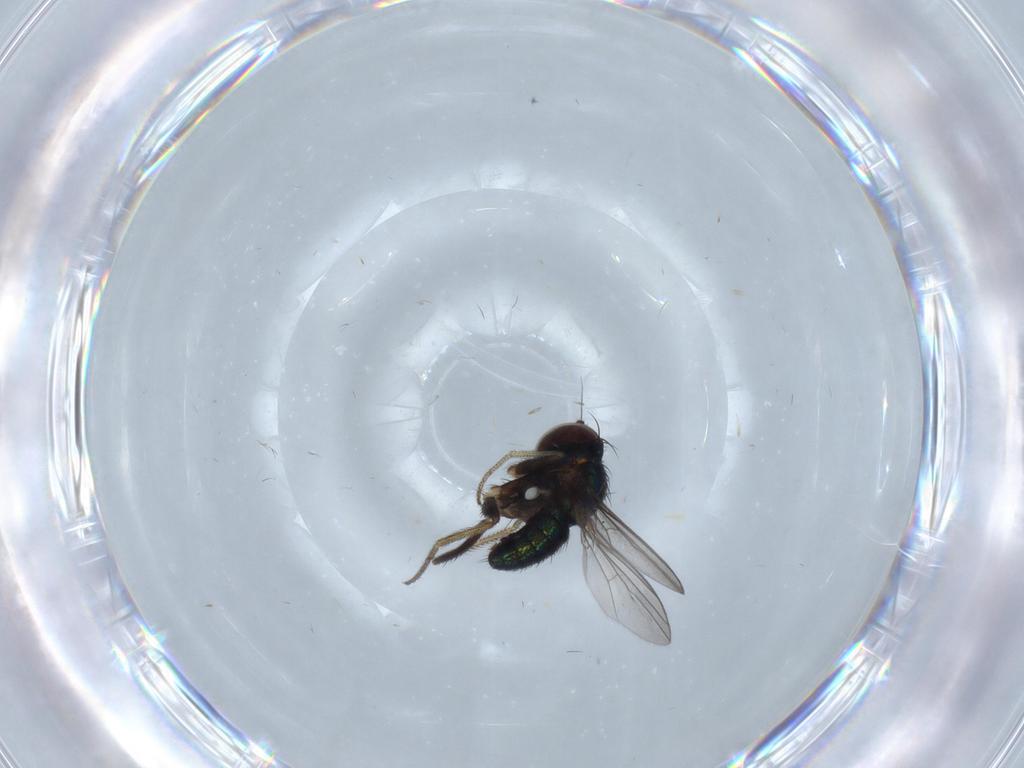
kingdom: Animalia
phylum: Arthropoda
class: Insecta
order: Diptera
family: Dolichopodidae
